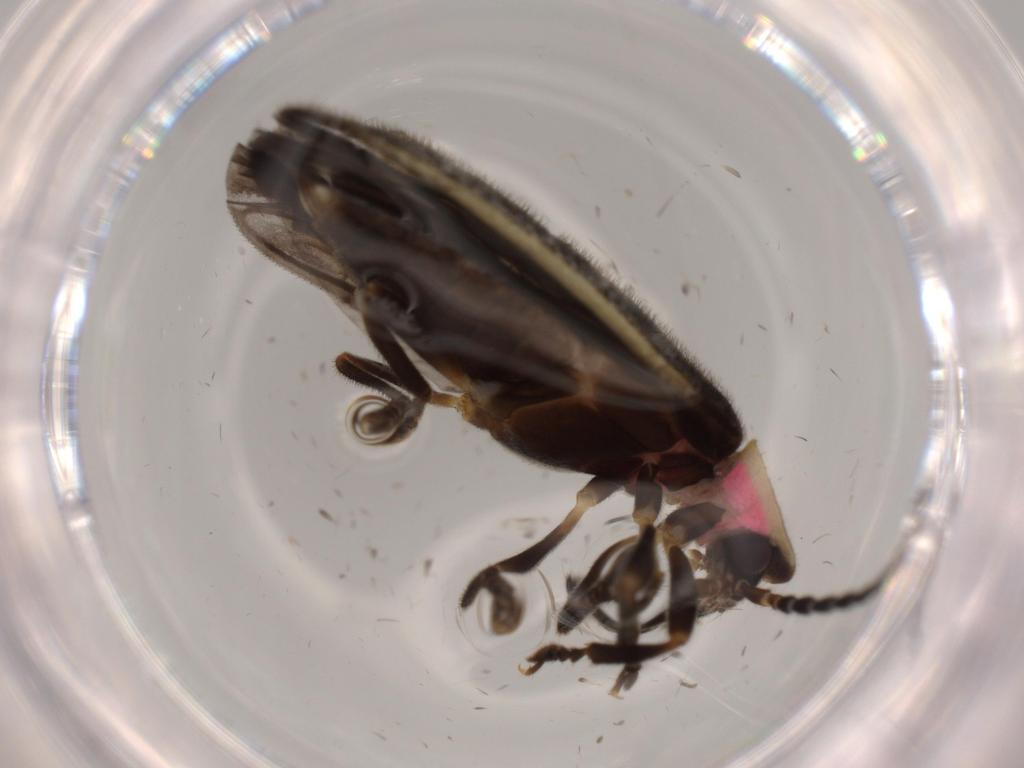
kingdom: Animalia
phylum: Arthropoda
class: Insecta
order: Coleoptera
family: Lampyridae
